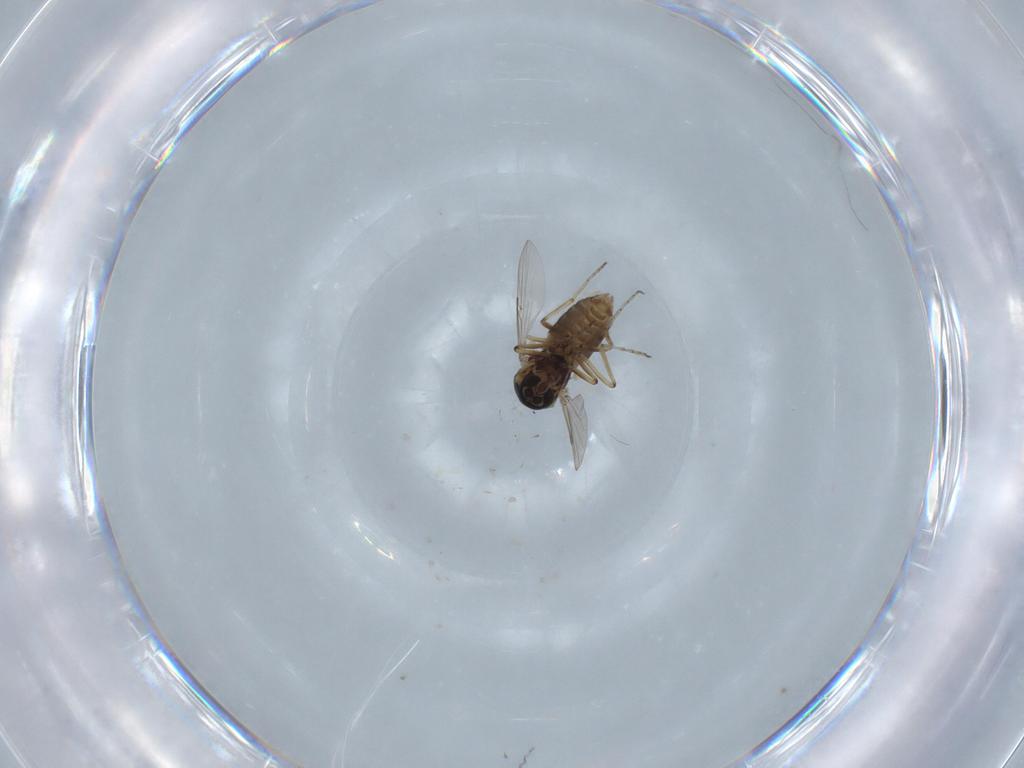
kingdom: Animalia
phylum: Arthropoda
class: Insecta
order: Diptera
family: Ceratopogonidae
